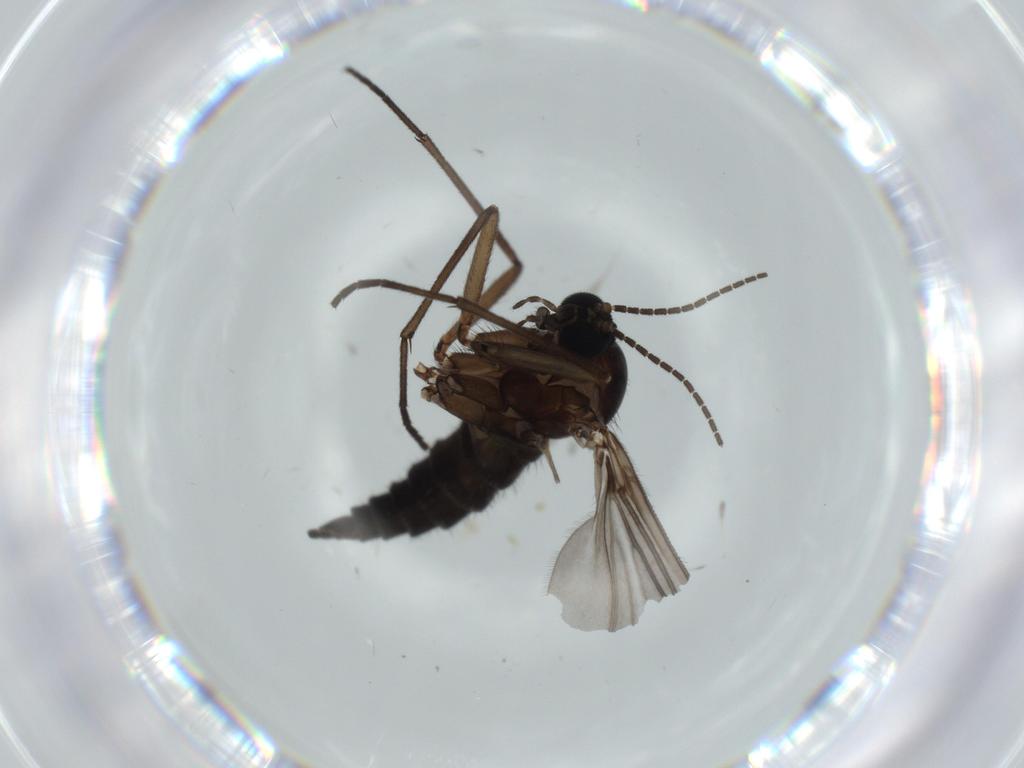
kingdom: Animalia
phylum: Arthropoda
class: Insecta
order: Diptera
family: Sciaridae
